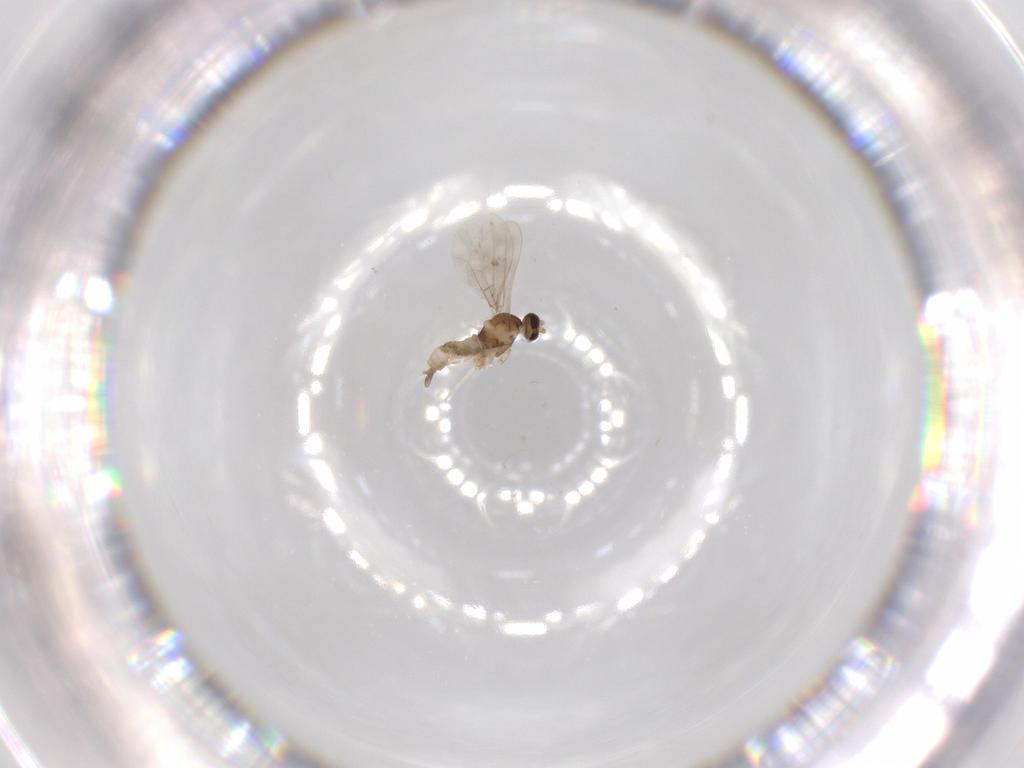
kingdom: Animalia
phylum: Arthropoda
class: Insecta
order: Diptera
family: Cecidomyiidae
